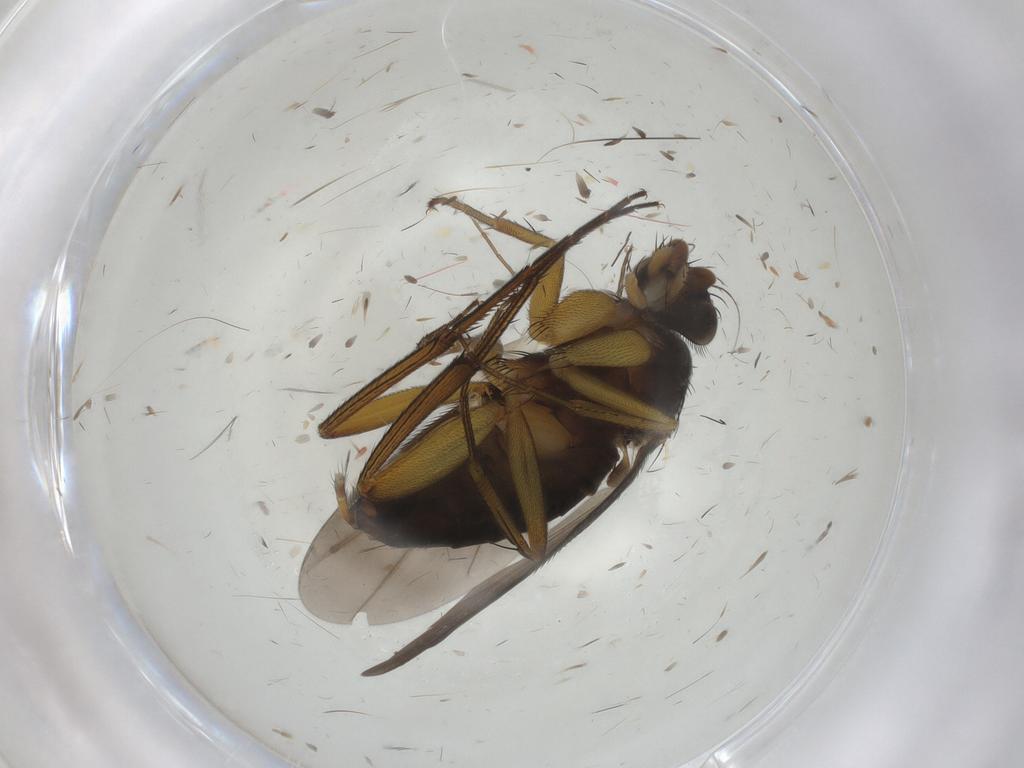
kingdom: Animalia
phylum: Arthropoda
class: Insecta
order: Diptera
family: Phoridae
